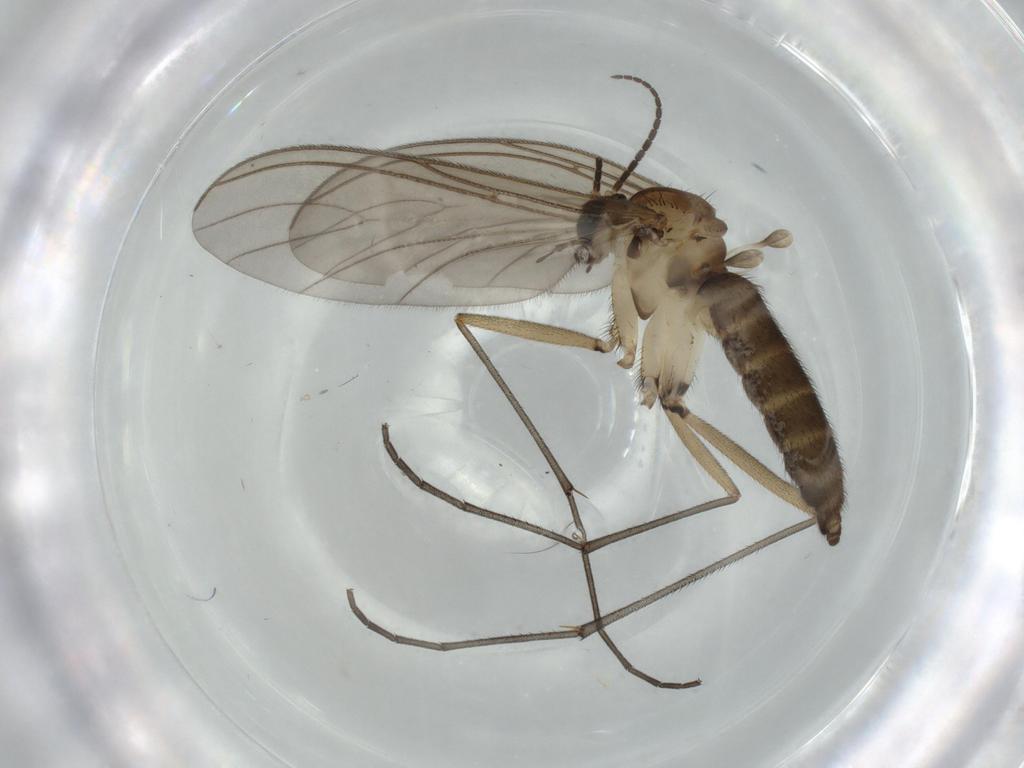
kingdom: Animalia
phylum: Arthropoda
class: Insecta
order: Diptera
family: Sciaridae
